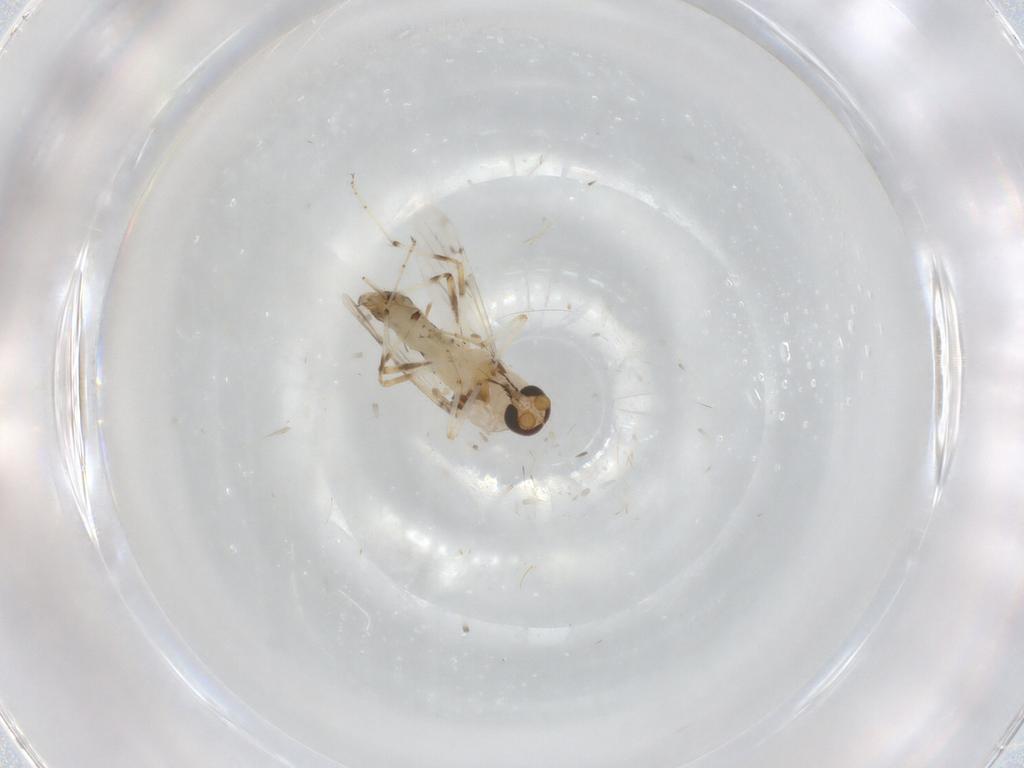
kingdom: Animalia
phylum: Arthropoda
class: Insecta
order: Diptera
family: Ceratopogonidae
